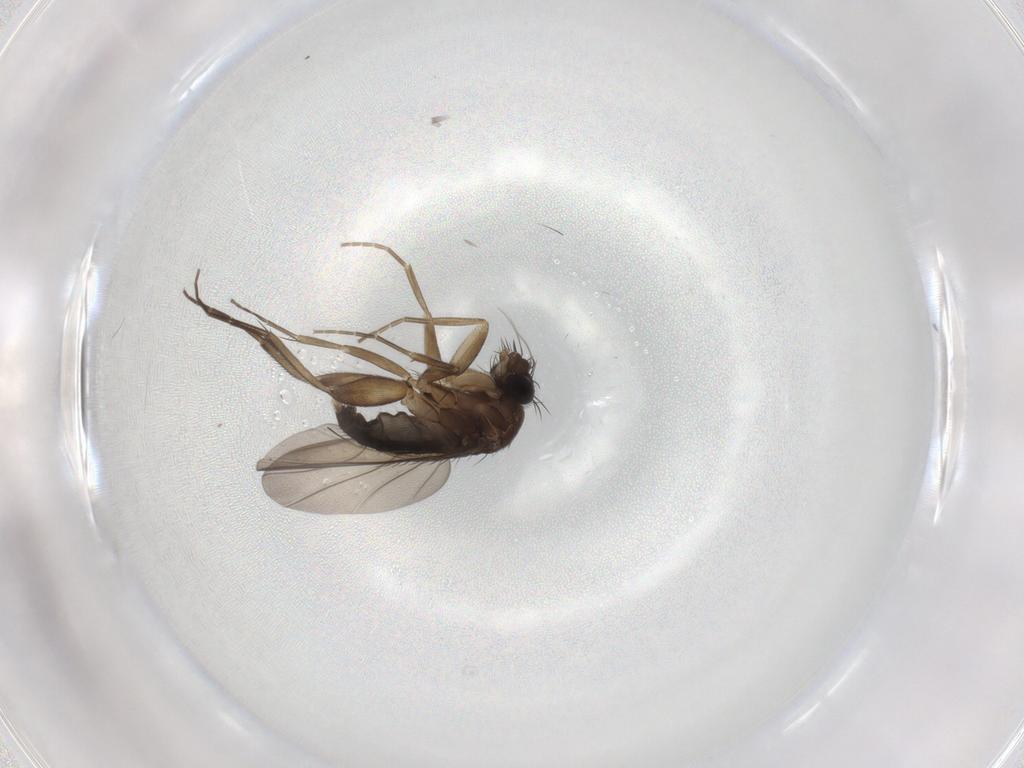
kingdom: Animalia
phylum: Arthropoda
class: Insecta
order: Diptera
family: Phoridae
